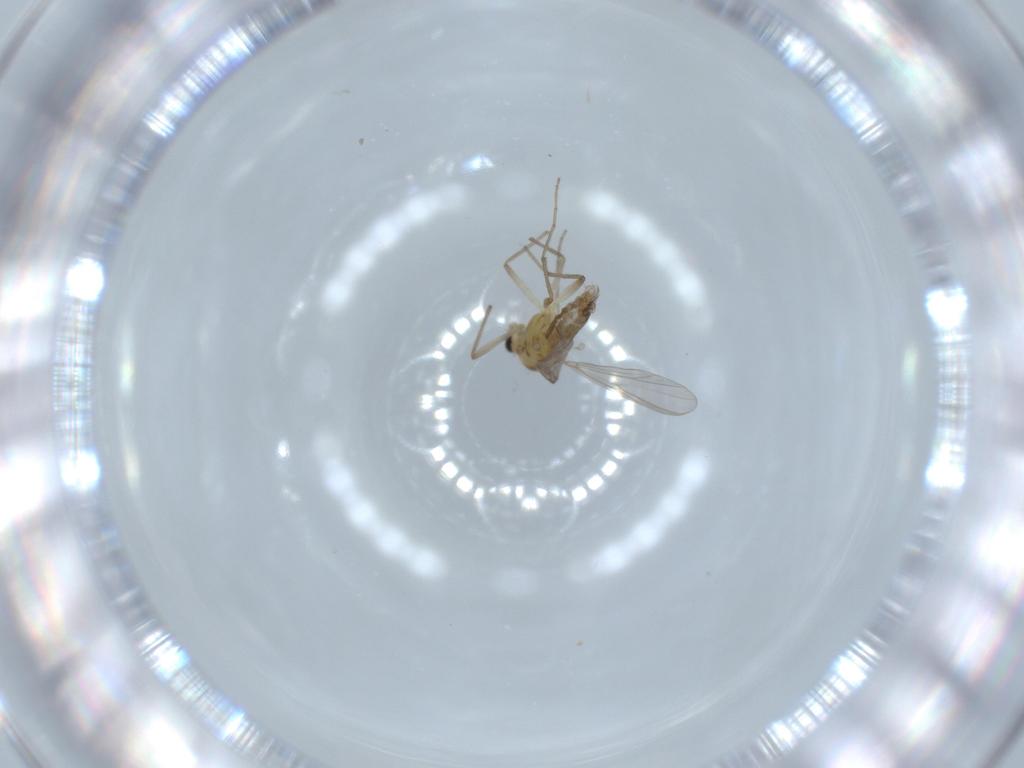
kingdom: Animalia
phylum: Arthropoda
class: Insecta
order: Diptera
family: Chironomidae
